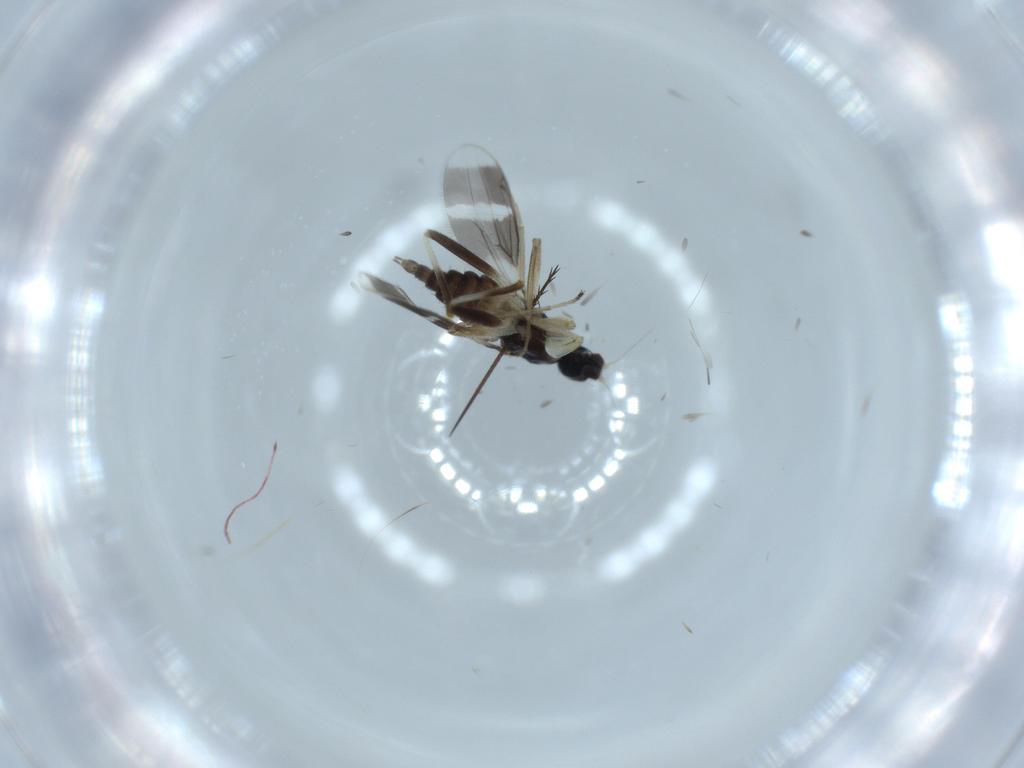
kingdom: Animalia
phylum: Arthropoda
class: Insecta
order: Diptera
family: Hybotidae
